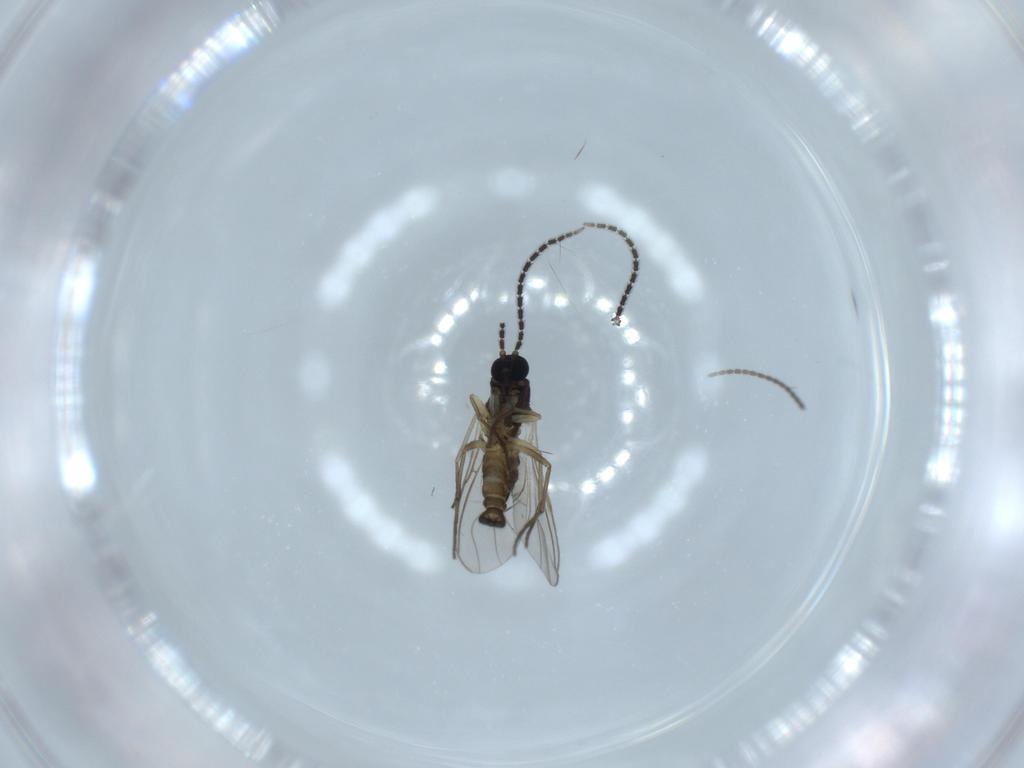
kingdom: Animalia
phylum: Arthropoda
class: Insecta
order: Diptera
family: Sciaridae
